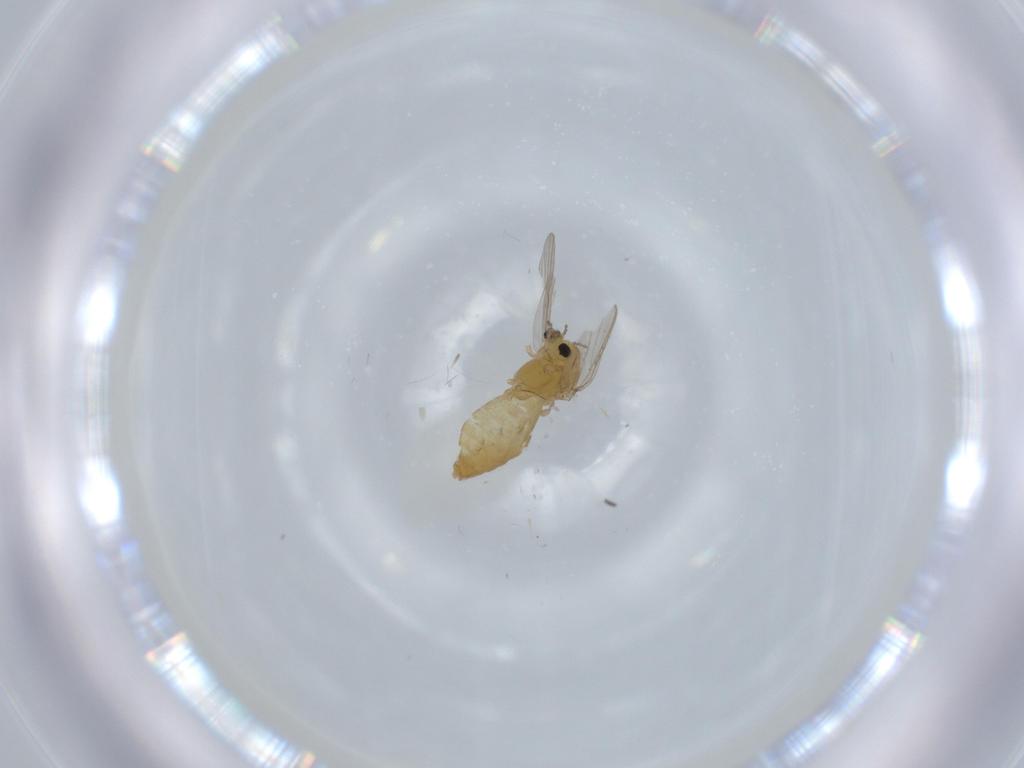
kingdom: Animalia
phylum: Arthropoda
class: Insecta
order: Diptera
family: Chironomidae
